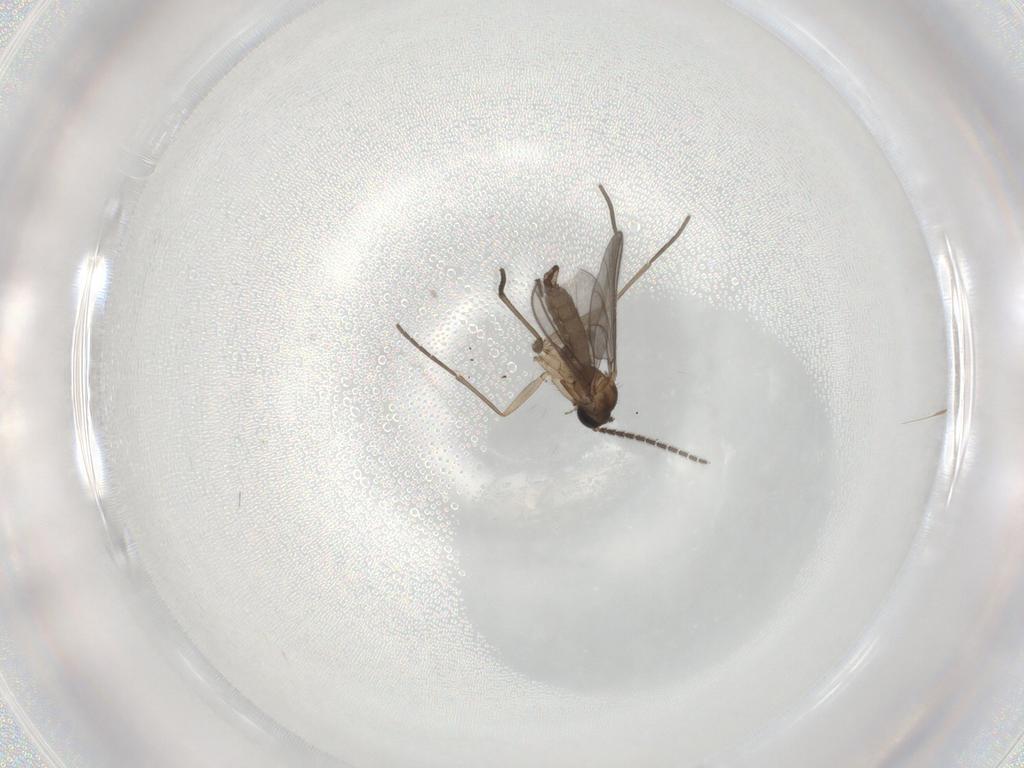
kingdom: Animalia
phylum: Arthropoda
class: Insecta
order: Diptera
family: Sciaridae
